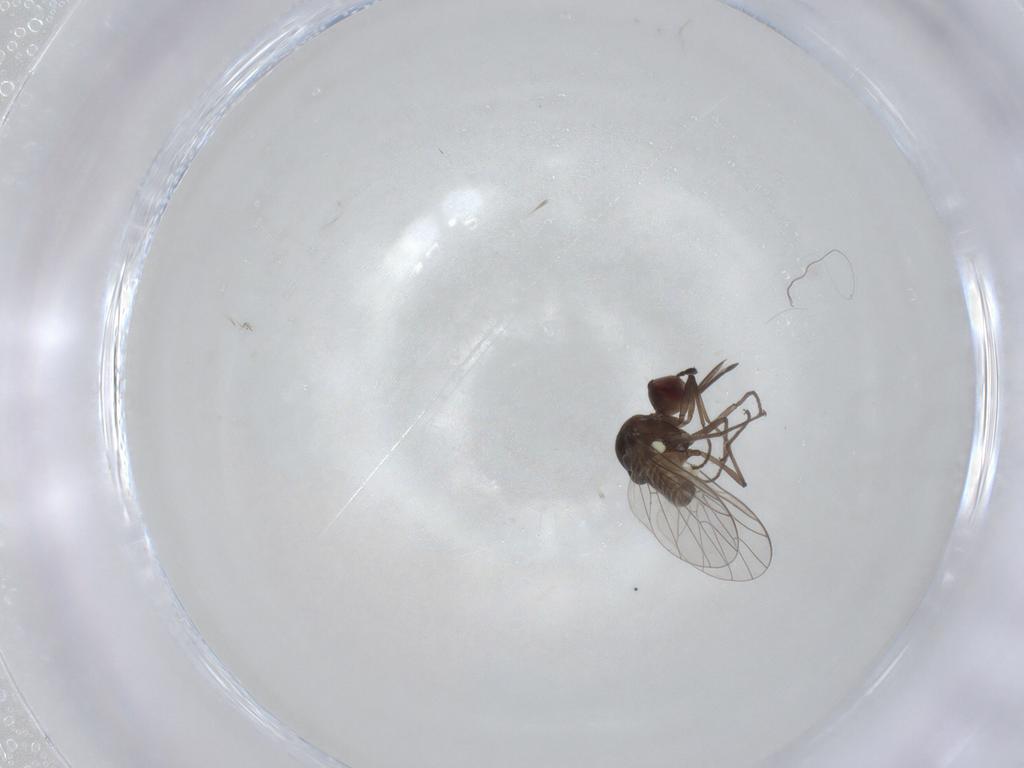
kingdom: Animalia
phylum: Arthropoda
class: Insecta
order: Diptera
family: Bombyliidae
